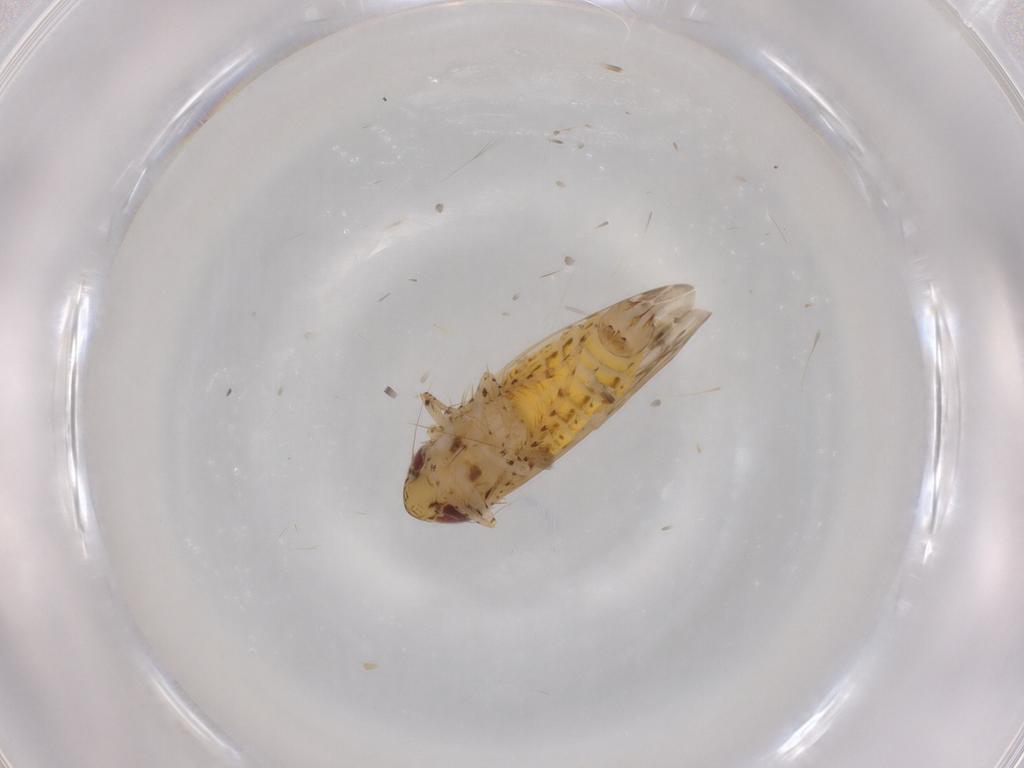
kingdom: Animalia
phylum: Arthropoda
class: Insecta
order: Hemiptera
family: Cicadellidae
